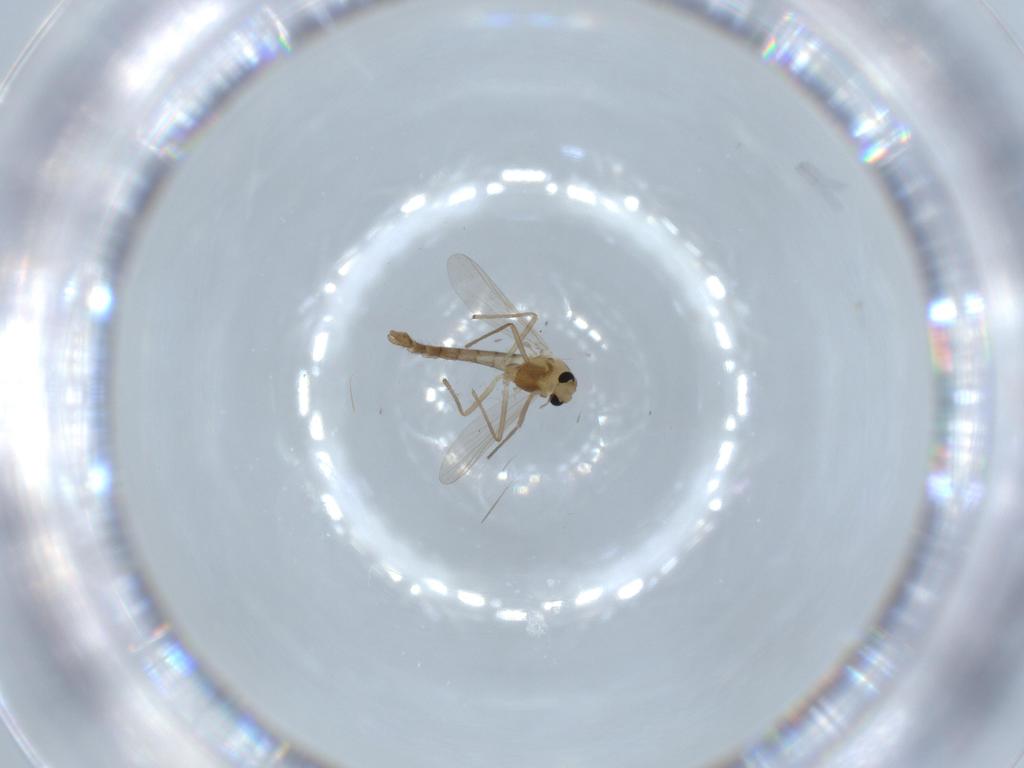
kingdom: Animalia
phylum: Arthropoda
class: Insecta
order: Diptera
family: Chironomidae
